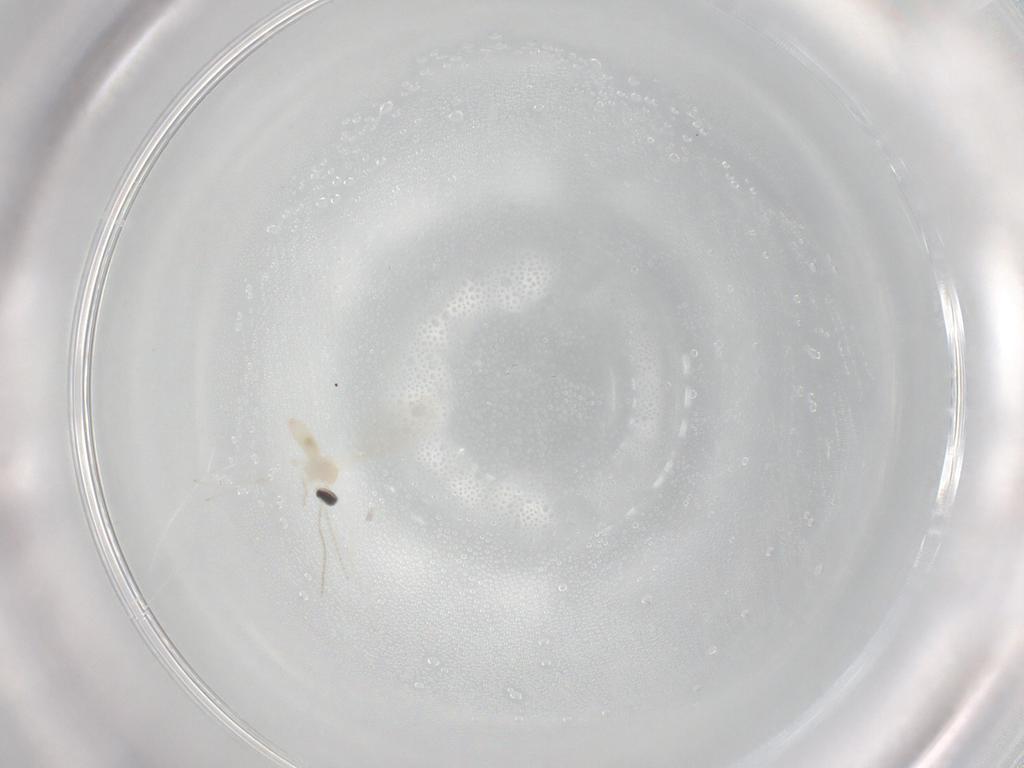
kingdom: Animalia
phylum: Arthropoda
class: Insecta
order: Diptera
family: Cecidomyiidae
